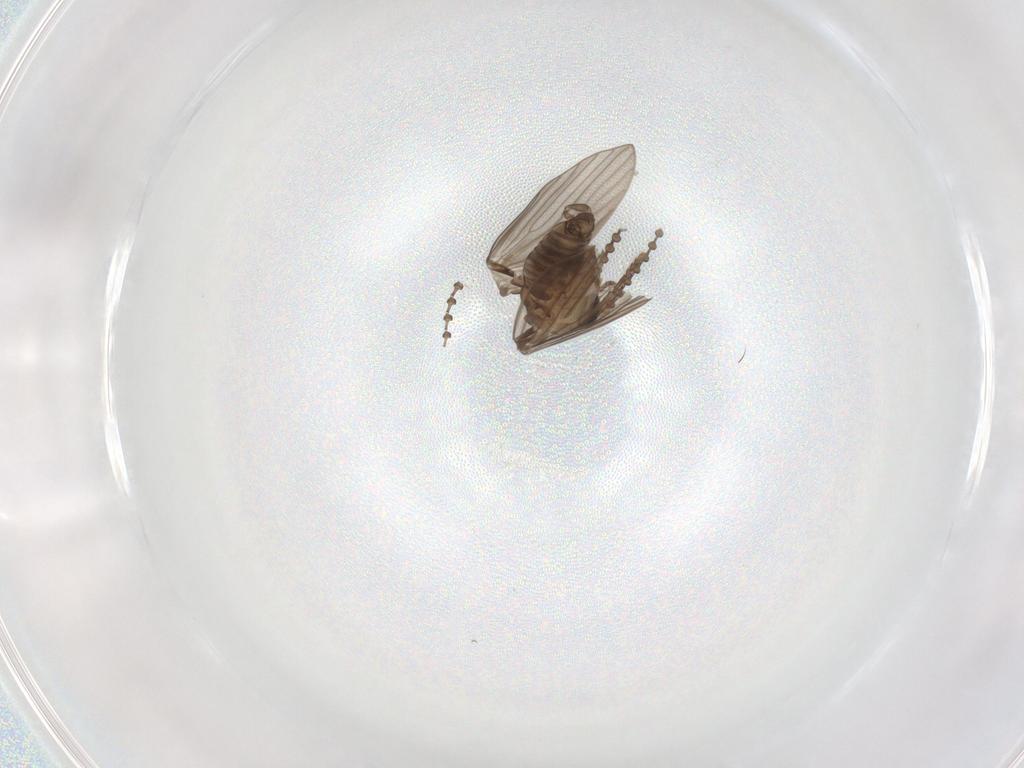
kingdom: Animalia
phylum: Arthropoda
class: Insecta
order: Diptera
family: Psychodidae
